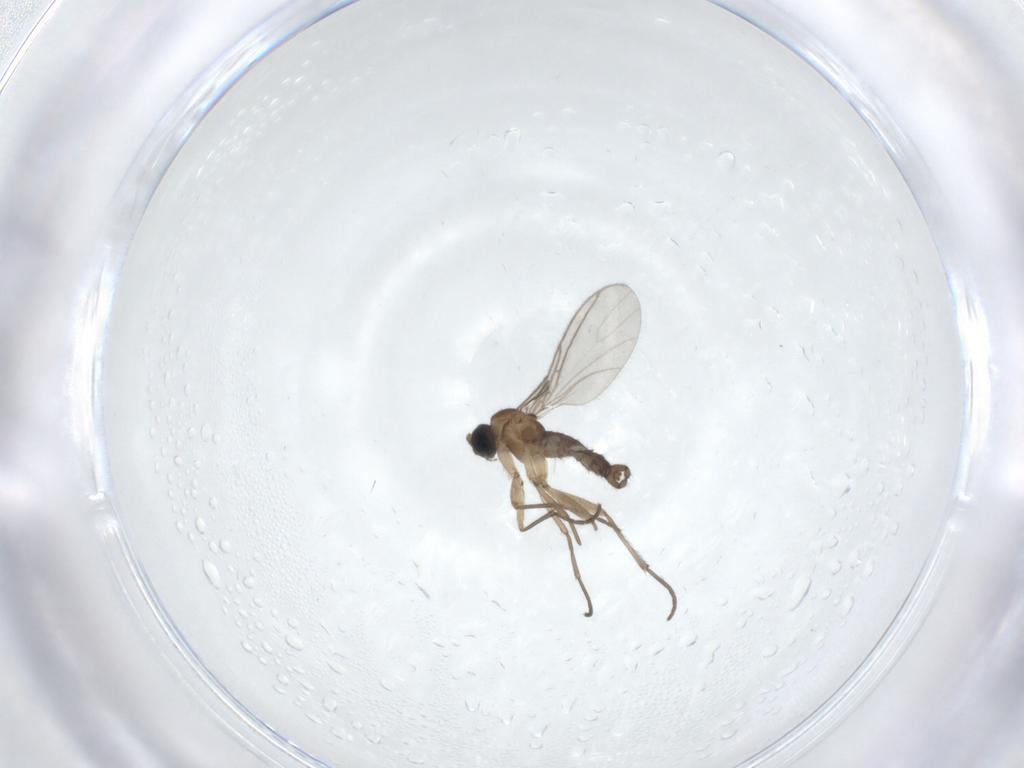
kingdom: Animalia
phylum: Arthropoda
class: Insecta
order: Diptera
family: Sciaridae
